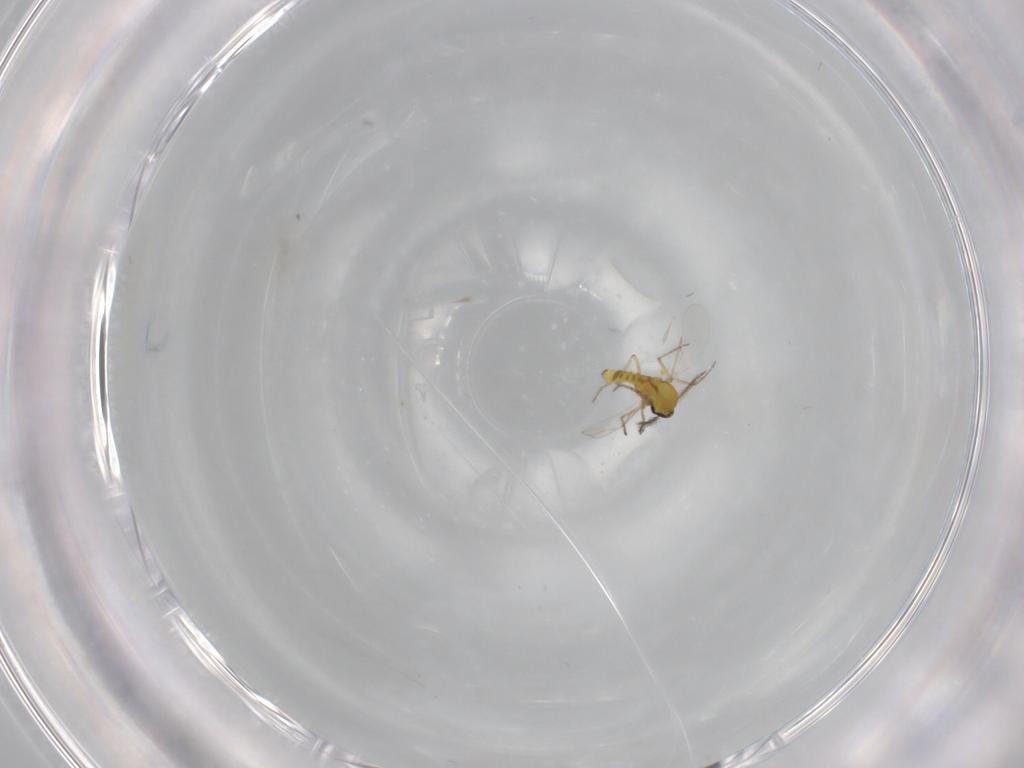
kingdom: Animalia
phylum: Arthropoda
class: Insecta
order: Diptera
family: Ceratopogonidae
